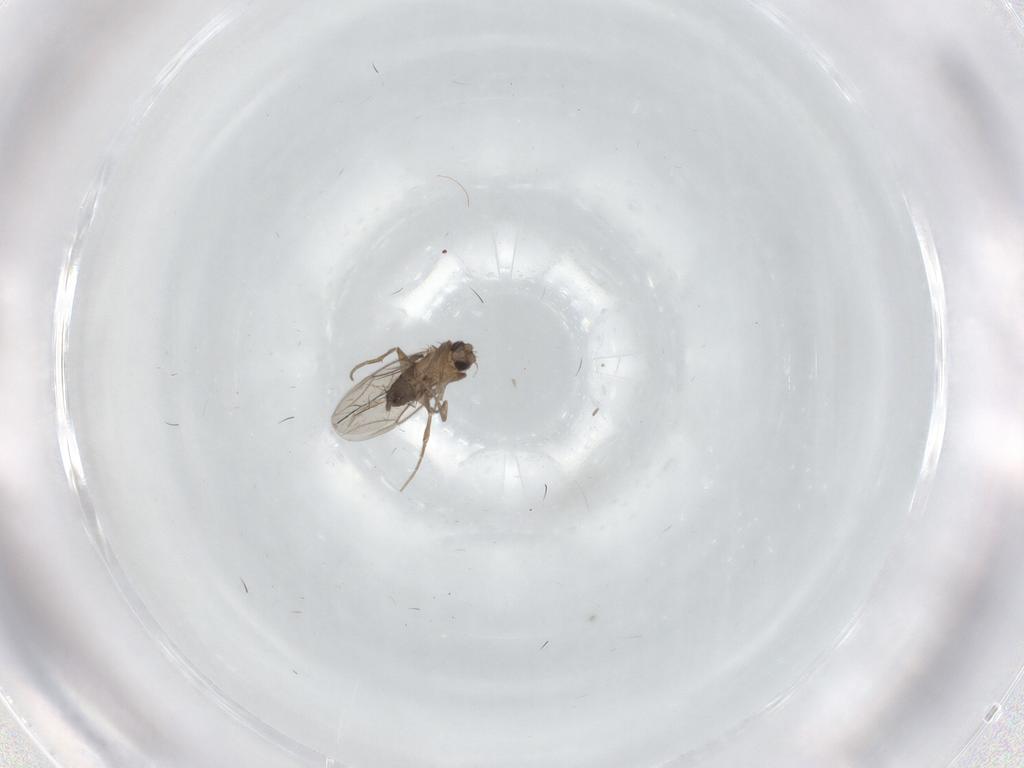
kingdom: Animalia
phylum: Arthropoda
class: Insecta
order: Diptera
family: Cecidomyiidae
